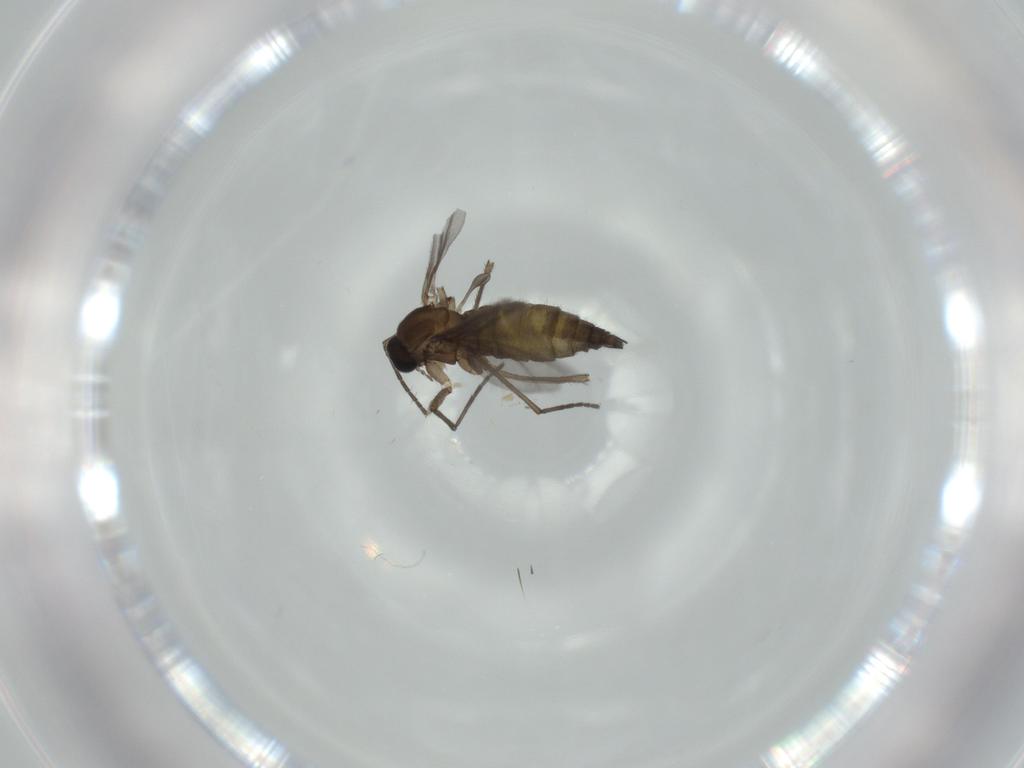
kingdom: Animalia
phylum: Arthropoda
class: Insecta
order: Diptera
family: Sciaridae
